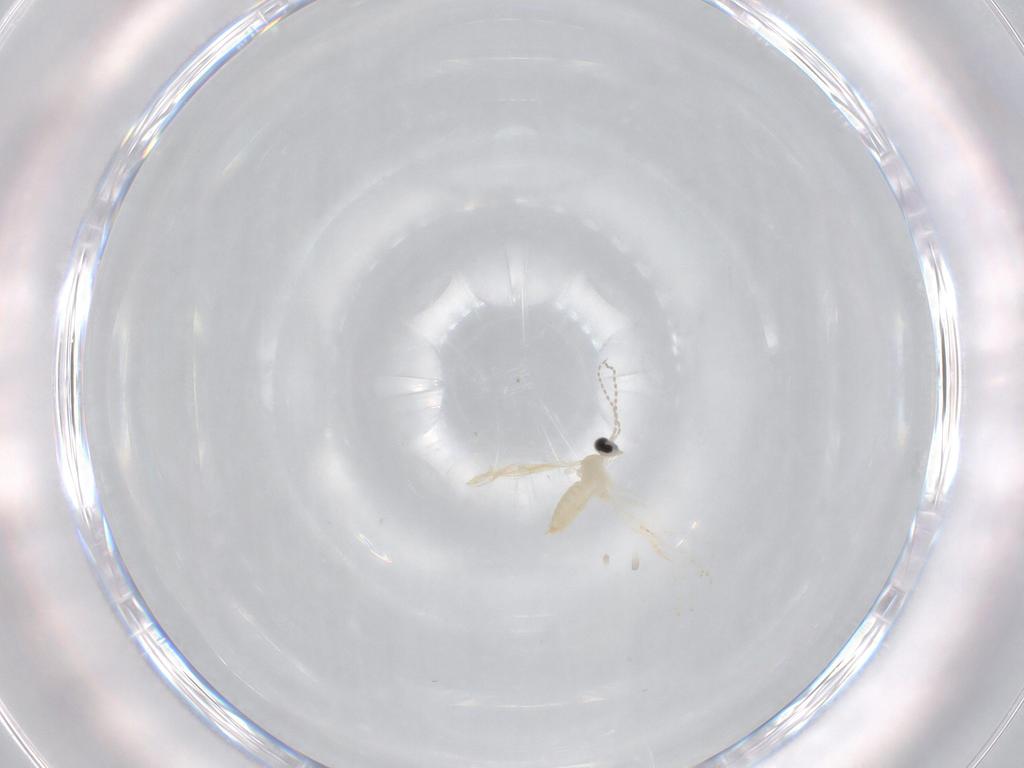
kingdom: Animalia
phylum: Arthropoda
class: Insecta
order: Diptera
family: Cecidomyiidae
